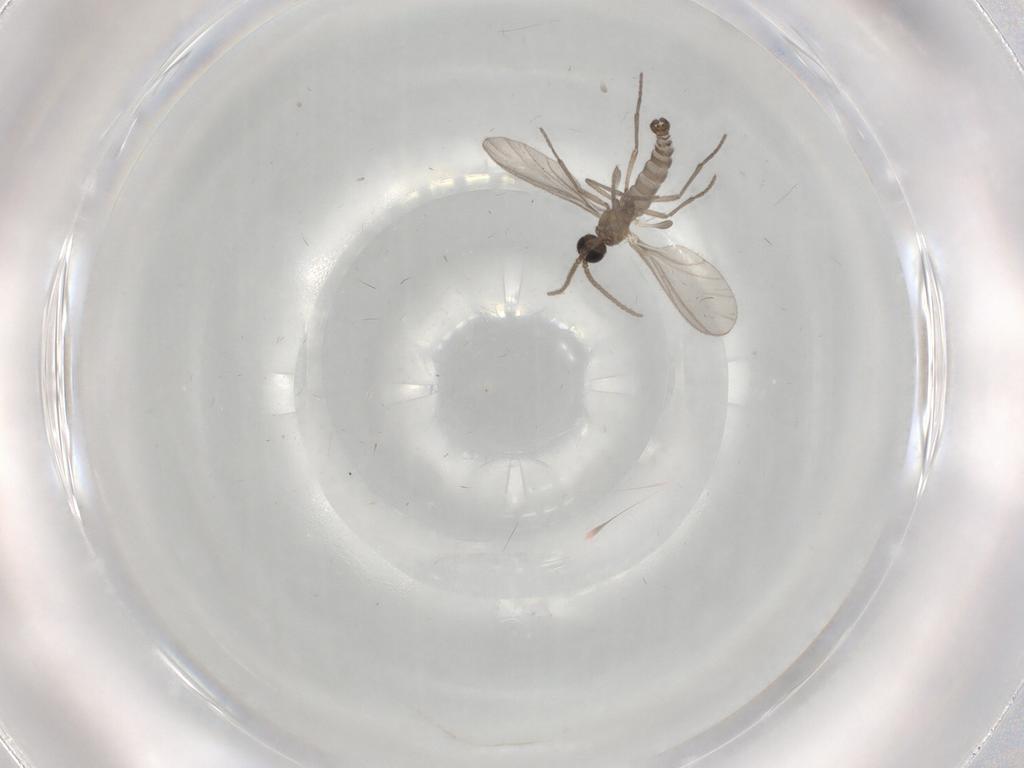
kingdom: Animalia
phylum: Arthropoda
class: Insecta
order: Diptera
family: Sciaridae
